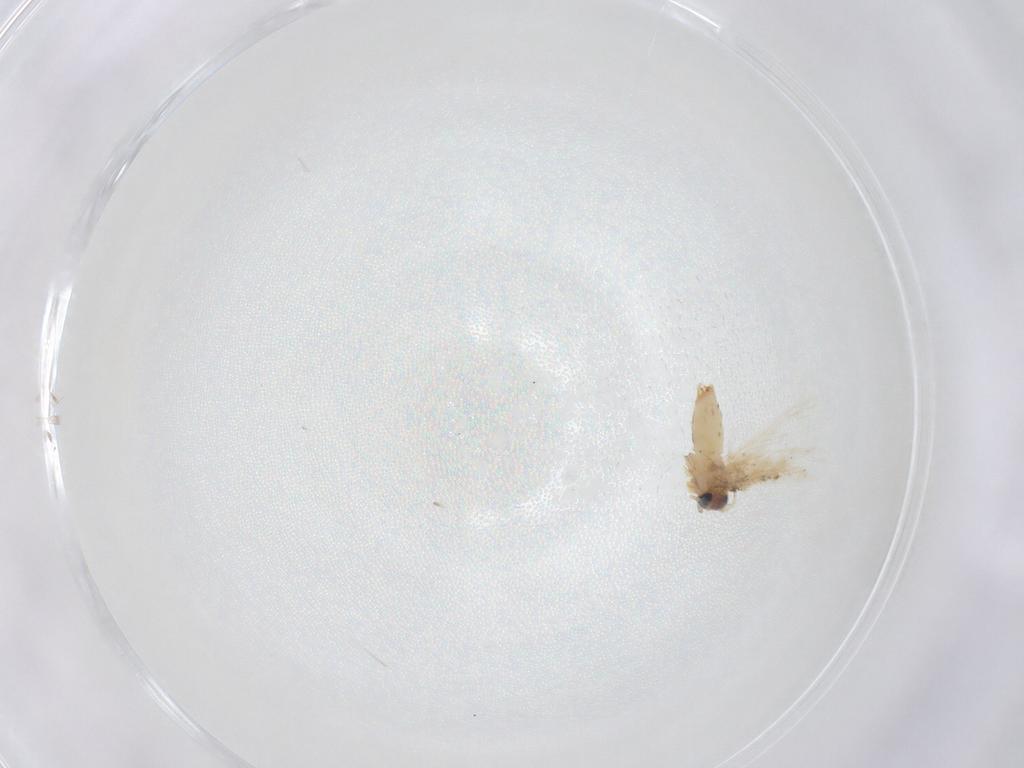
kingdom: Animalia
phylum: Arthropoda
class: Insecta
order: Lepidoptera
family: Crambidae
